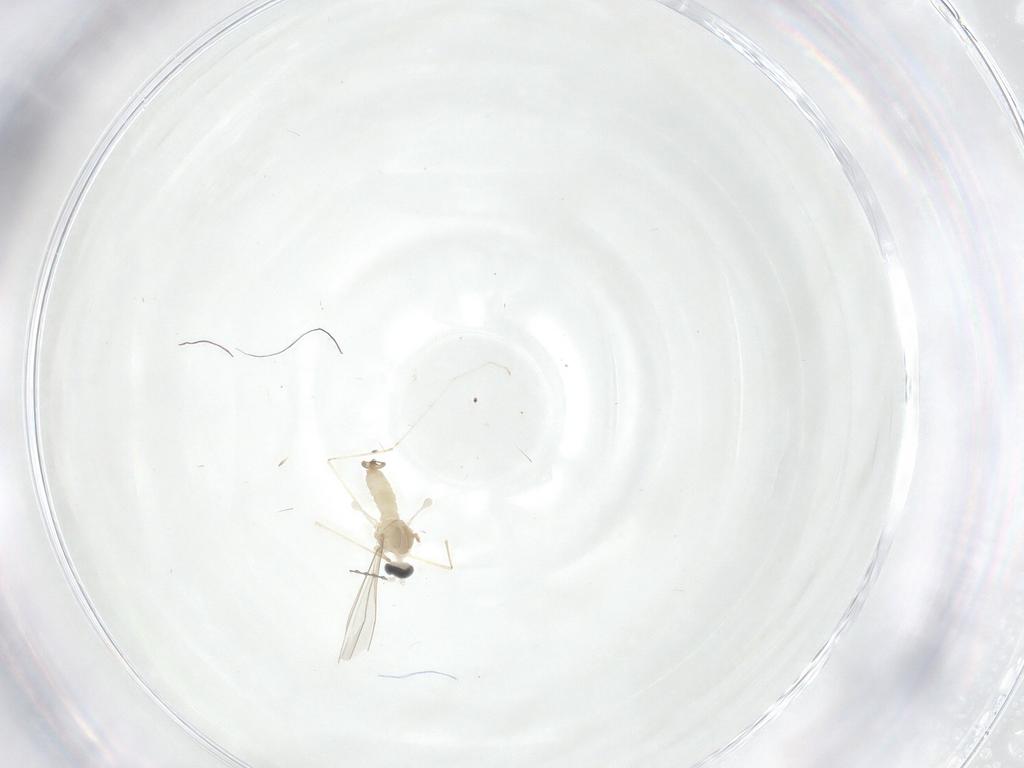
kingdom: Animalia
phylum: Arthropoda
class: Insecta
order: Diptera
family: Cecidomyiidae
